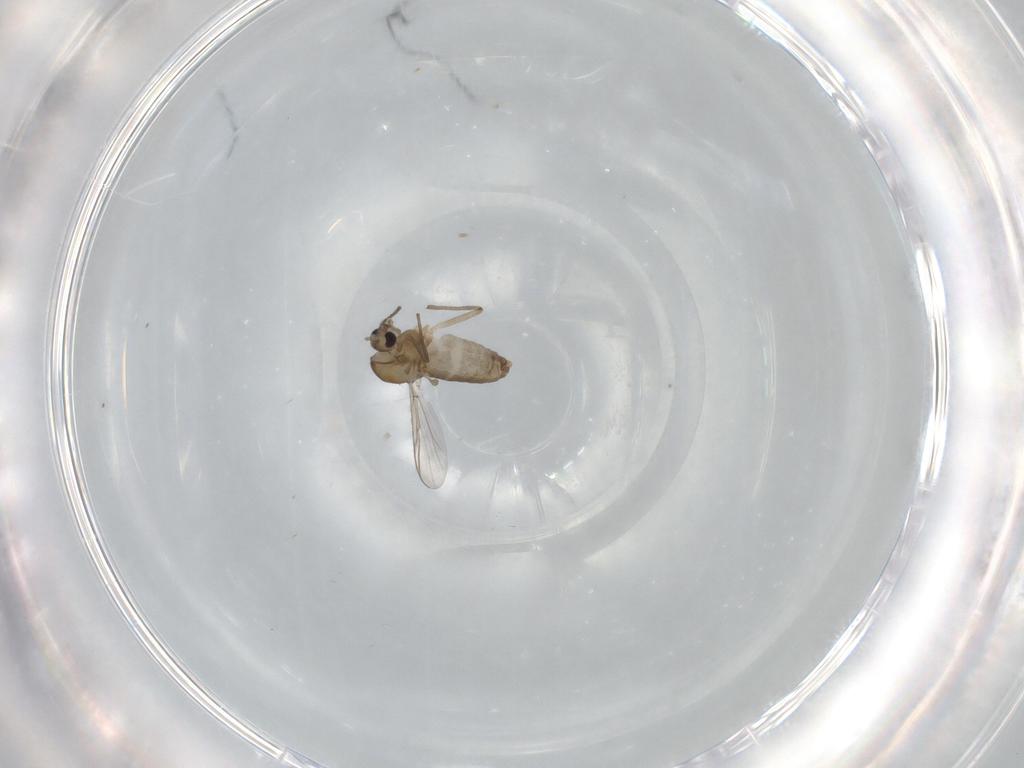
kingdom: Animalia
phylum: Arthropoda
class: Insecta
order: Diptera
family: Chironomidae
